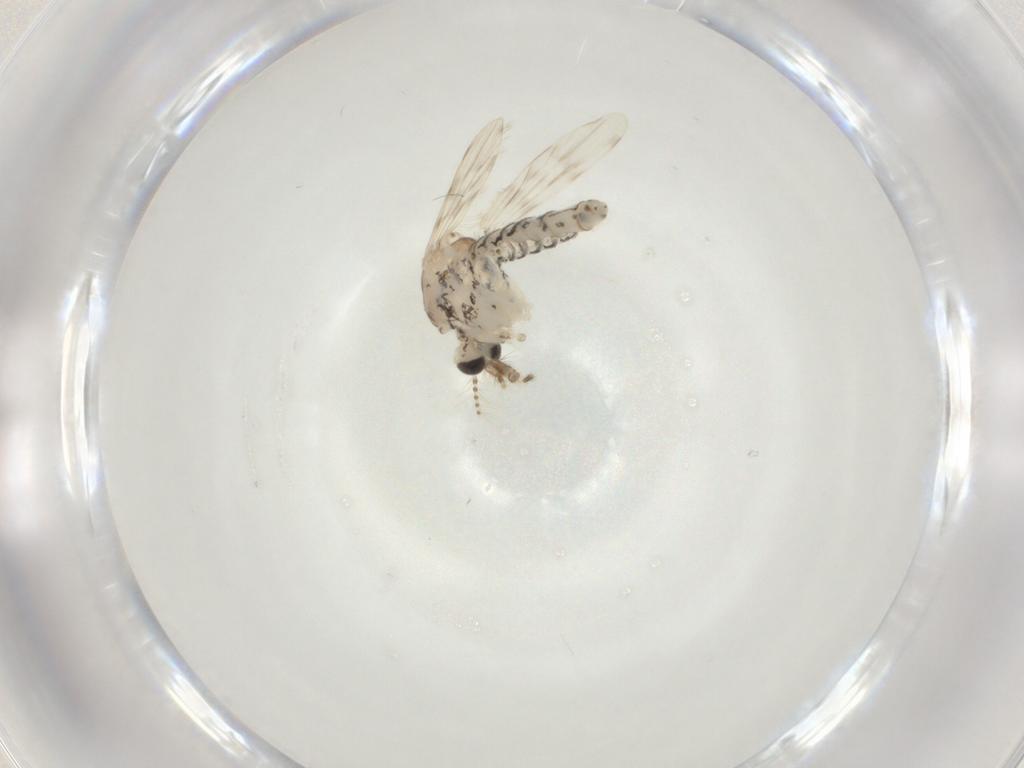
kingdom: Animalia
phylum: Arthropoda
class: Insecta
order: Diptera
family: Chaoboridae
